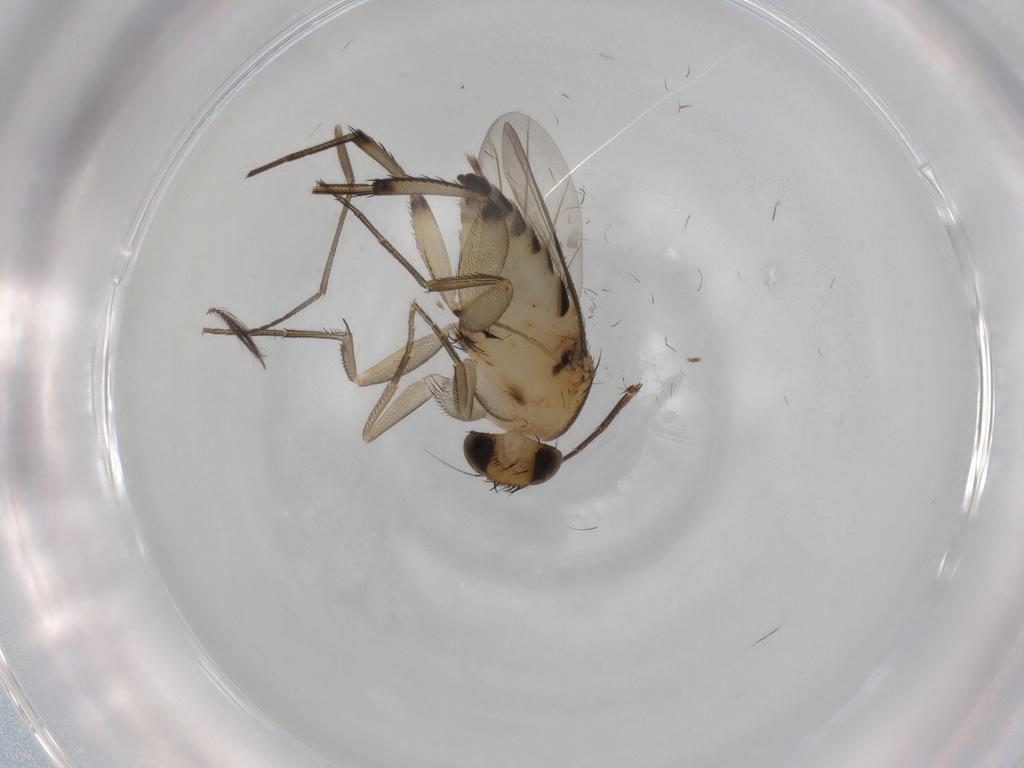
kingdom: Animalia
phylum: Arthropoda
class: Insecta
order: Diptera
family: Phoridae
